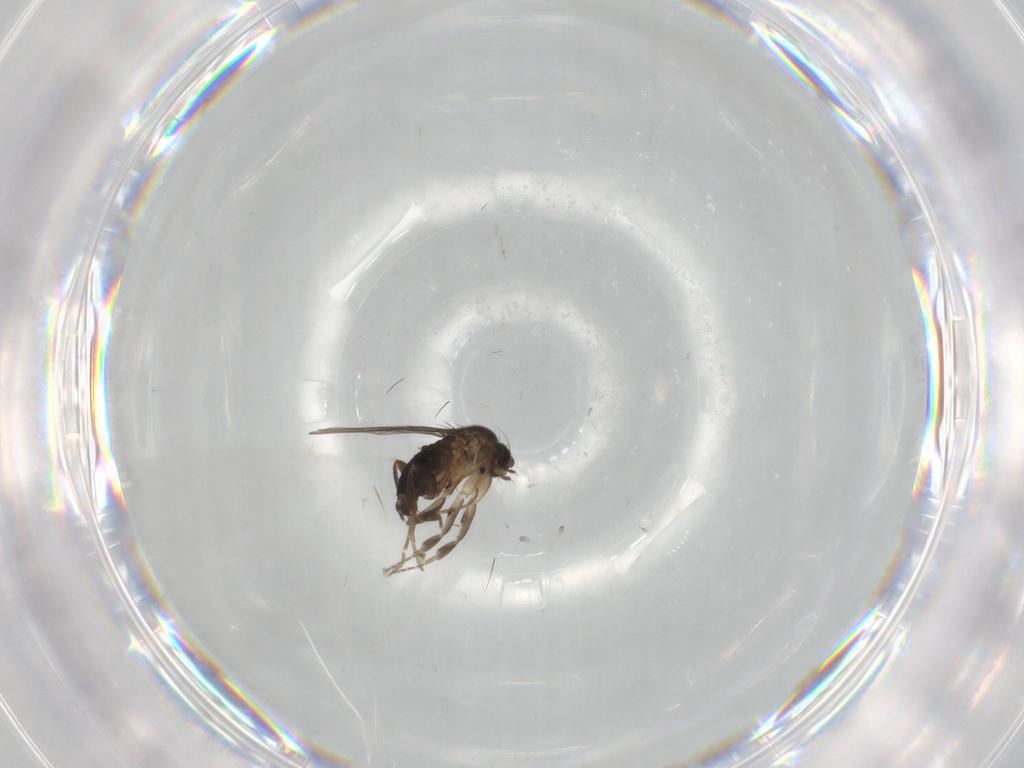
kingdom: Animalia
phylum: Arthropoda
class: Insecta
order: Diptera
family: Phoridae
